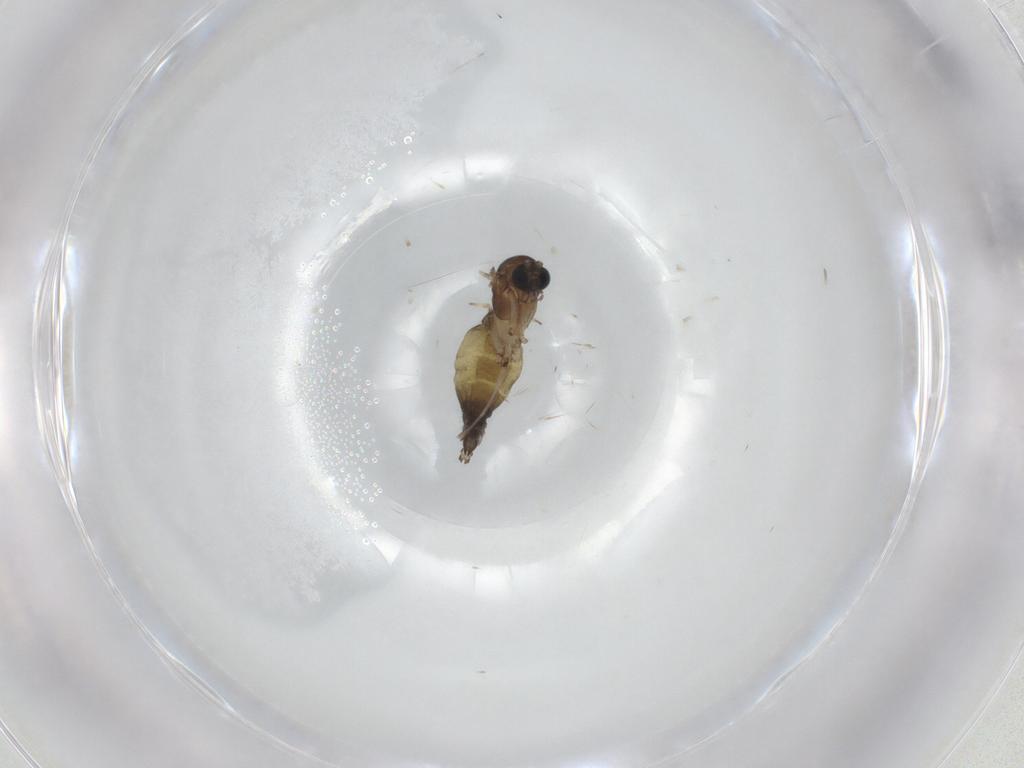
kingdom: Animalia
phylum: Arthropoda
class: Insecta
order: Diptera
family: Sciaridae
